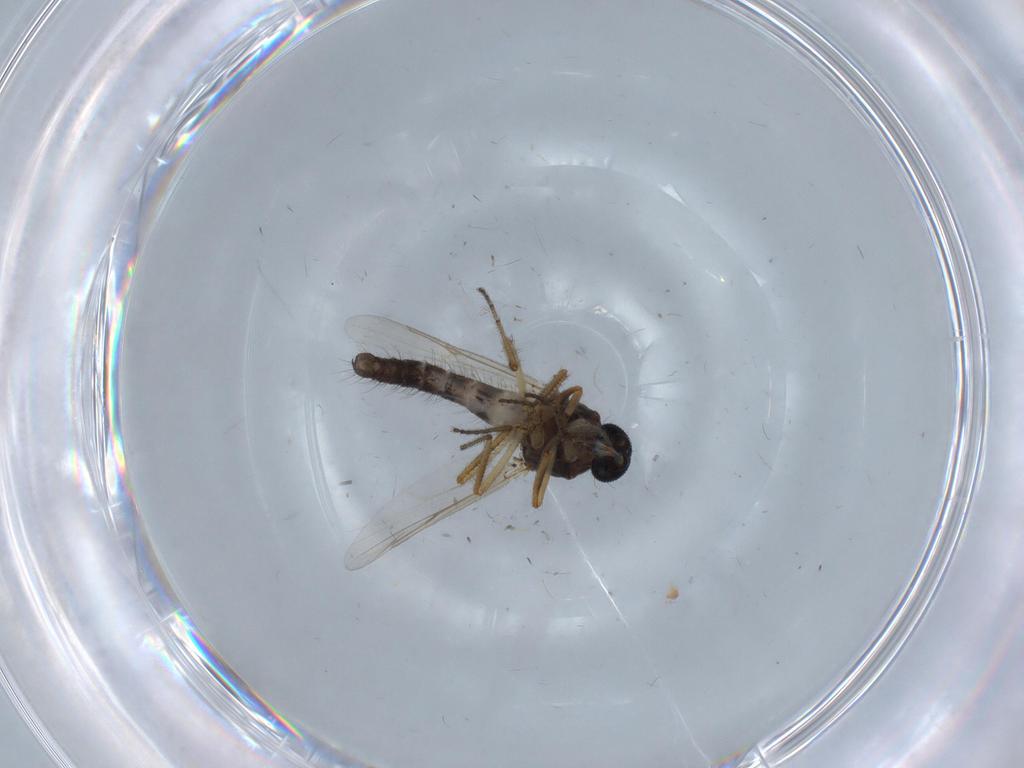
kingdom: Animalia
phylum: Arthropoda
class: Insecta
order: Diptera
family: Ceratopogonidae
